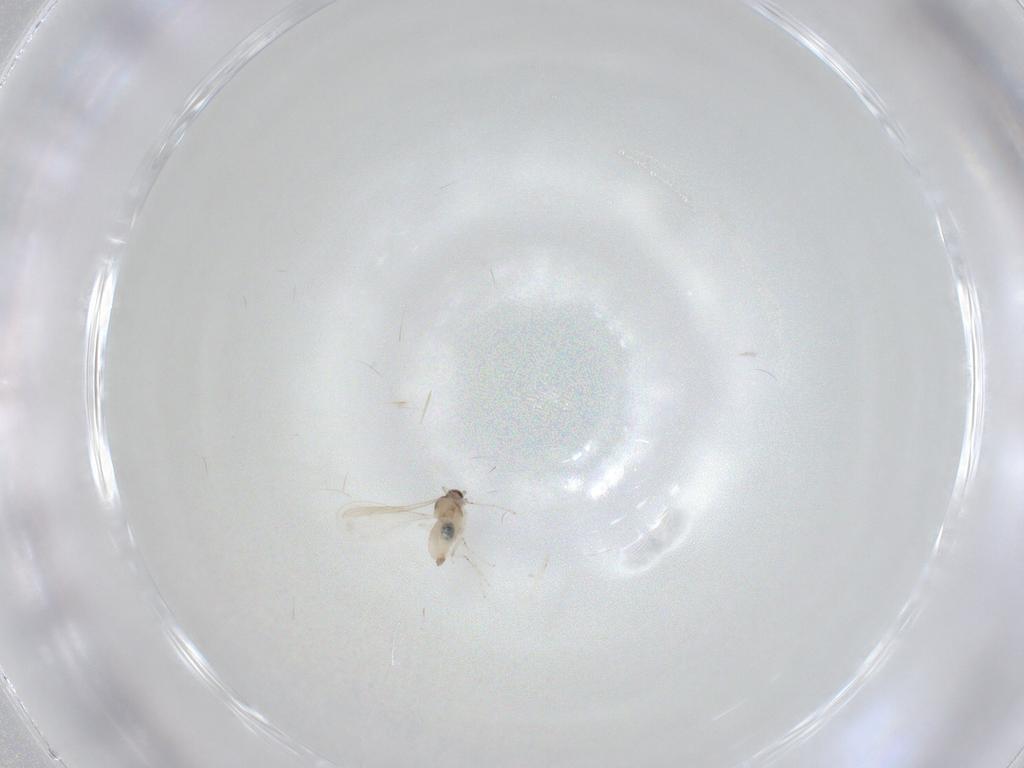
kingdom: Animalia
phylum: Arthropoda
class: Insecta
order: Diptera
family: Cecidomyiidae
